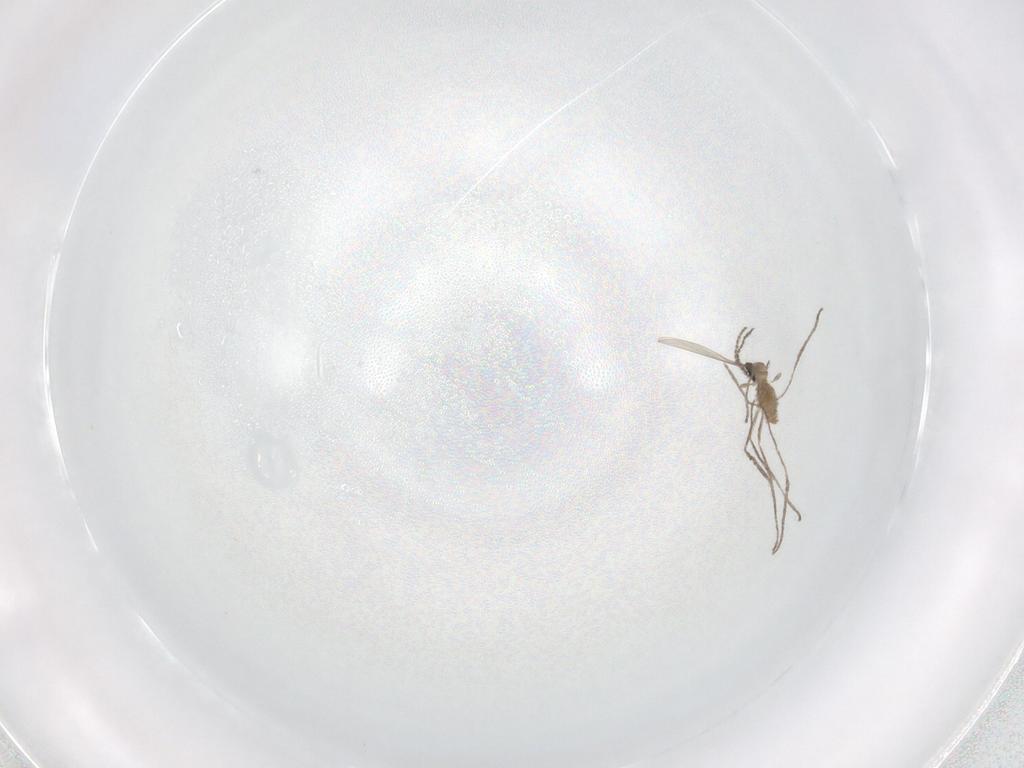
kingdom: Animalia
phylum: Arthropoda
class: Insecta
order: Diptera
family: Cecidomyiidae
